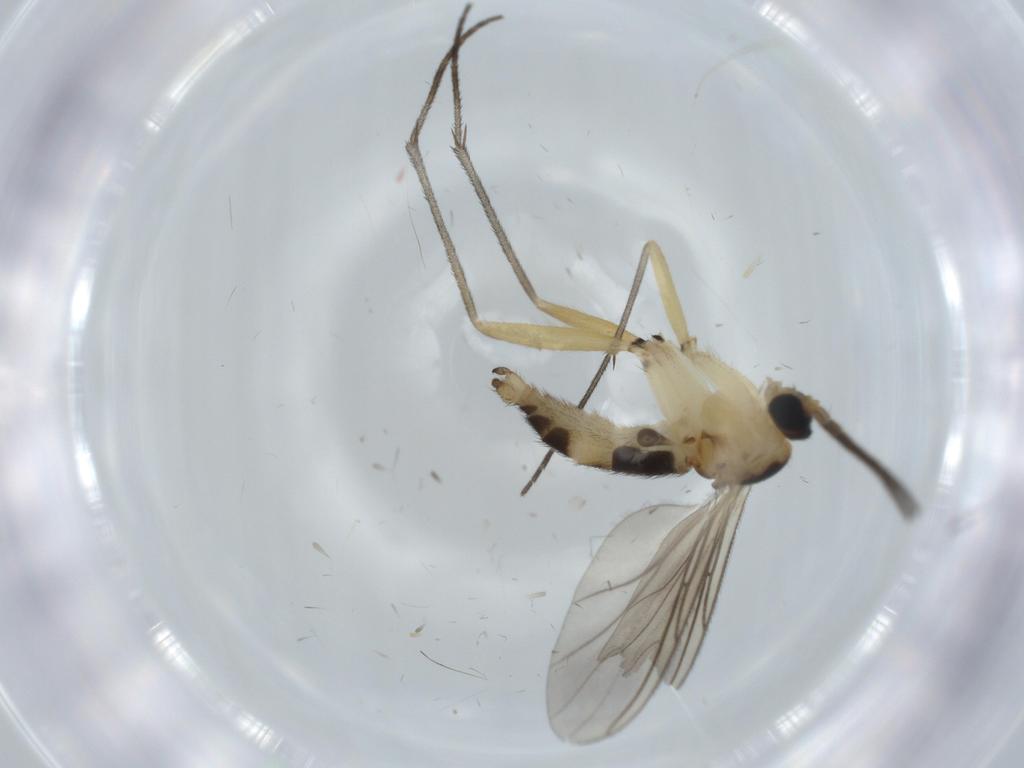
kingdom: Animalia
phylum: Arthropoda
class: Insecta
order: Diptera
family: Sciaridae
